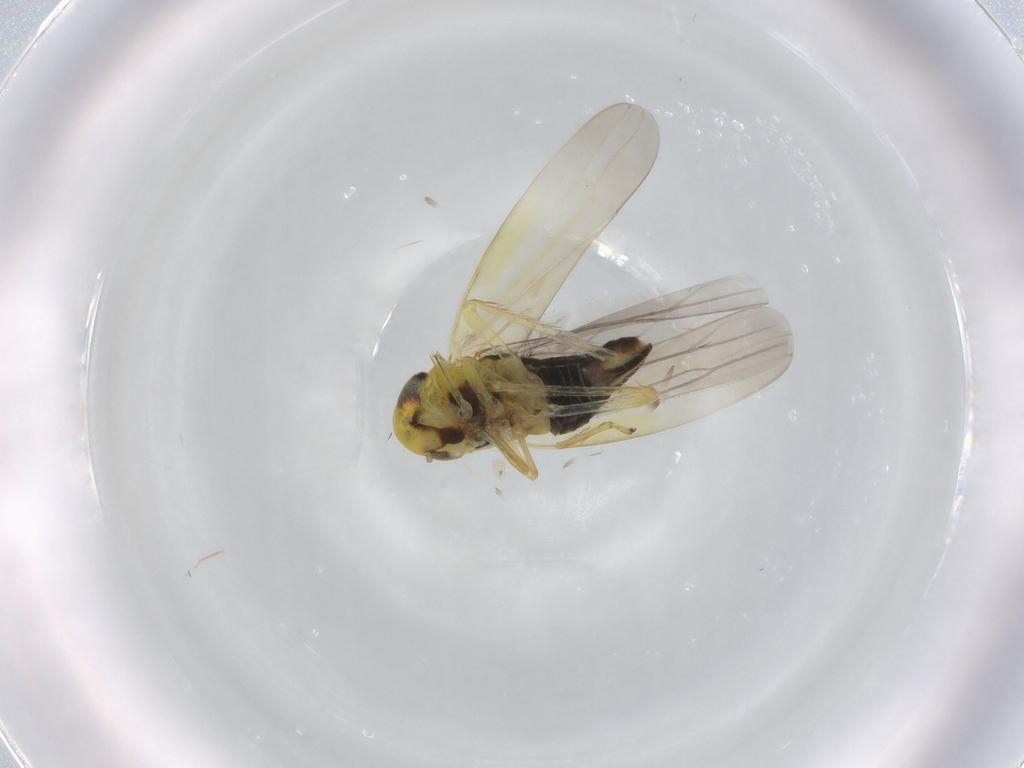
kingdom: Animalia
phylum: Arthropoda
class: Insecta
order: Hemiptera
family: Cicadellidae
